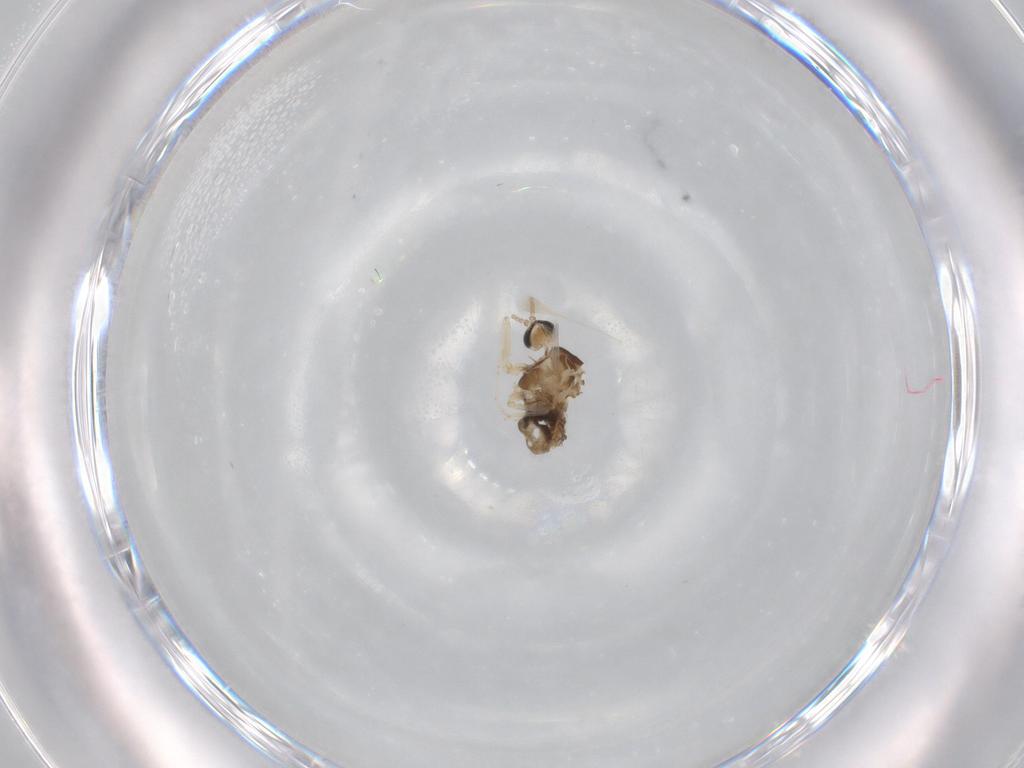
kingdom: Animalia
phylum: Arthropoda
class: Insecta
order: Diptera
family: Cecidomyiidae
